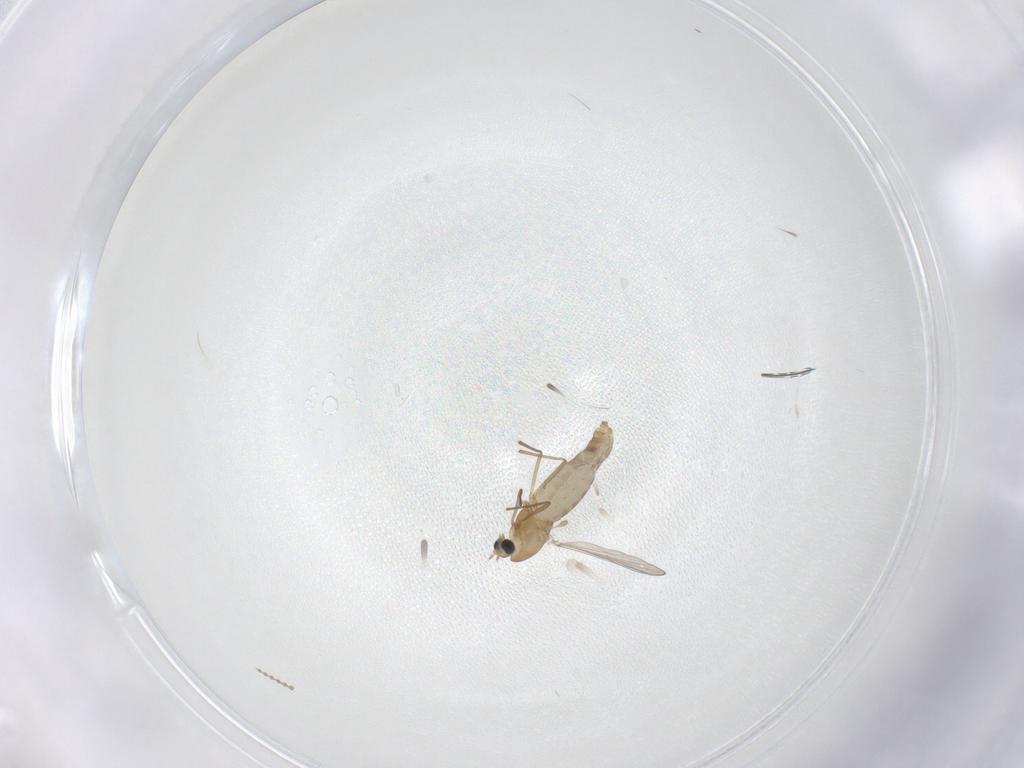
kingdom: Animalia
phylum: Arthropoda
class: Insecta
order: Diptera
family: Chironomidae
